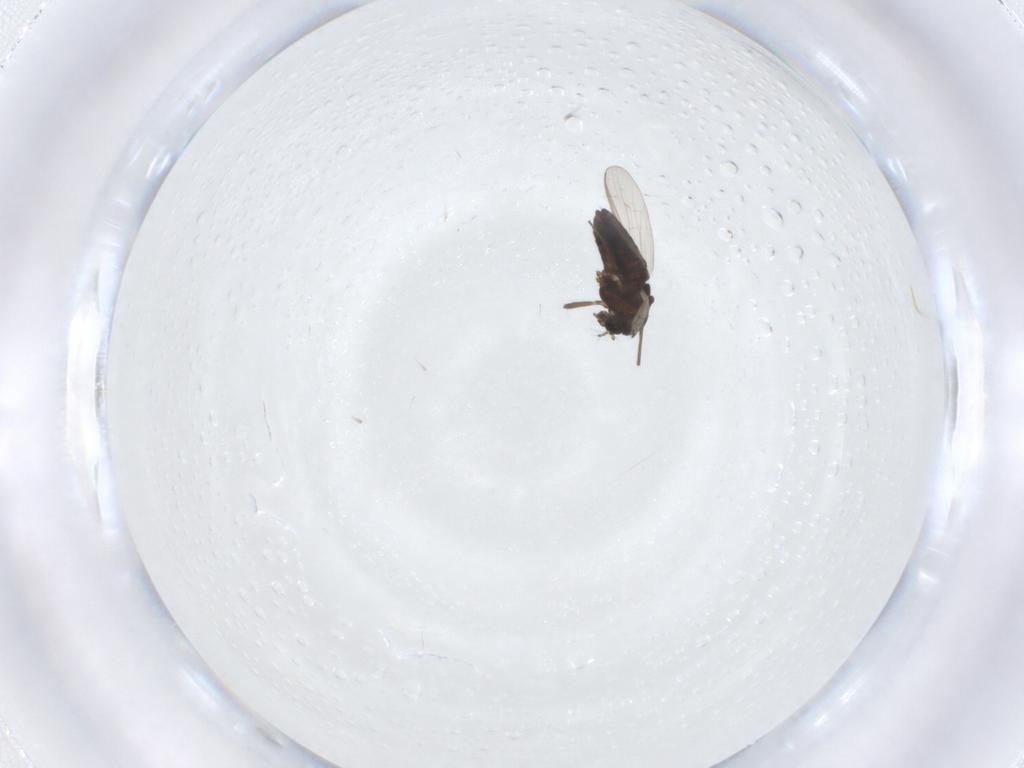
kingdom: Animalia
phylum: Arthropoda
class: Insecta
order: Diptera
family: Chironomidae
